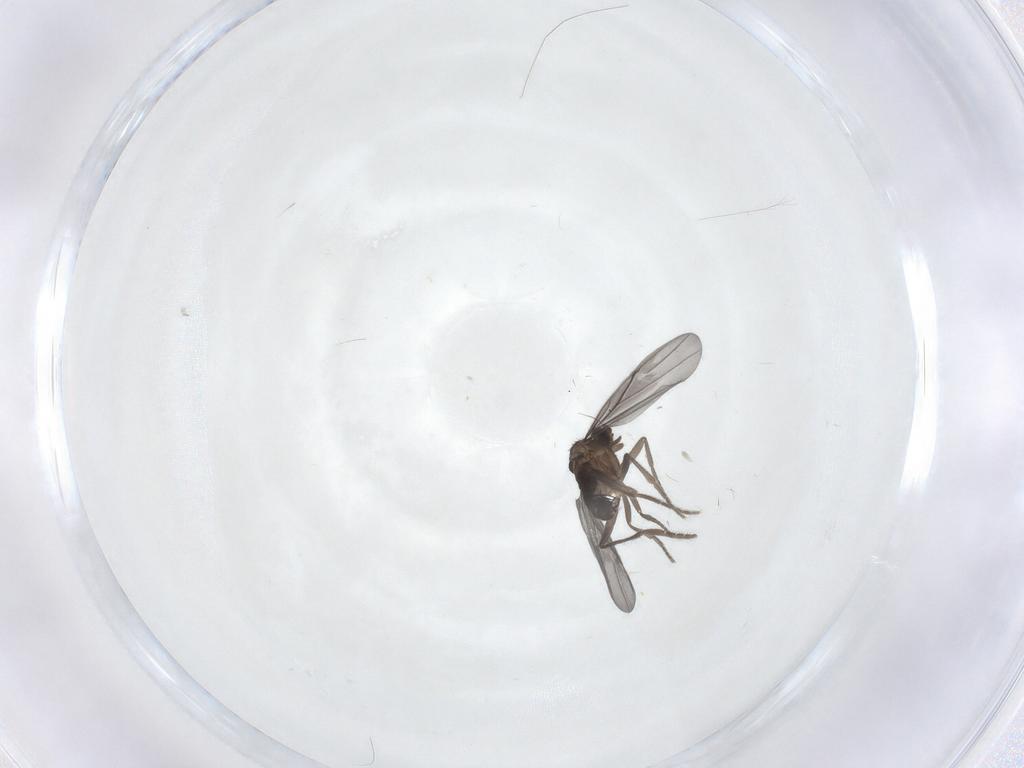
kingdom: Animalia
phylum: Arthropoda
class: Insecta
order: Diptera
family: Phoridae
